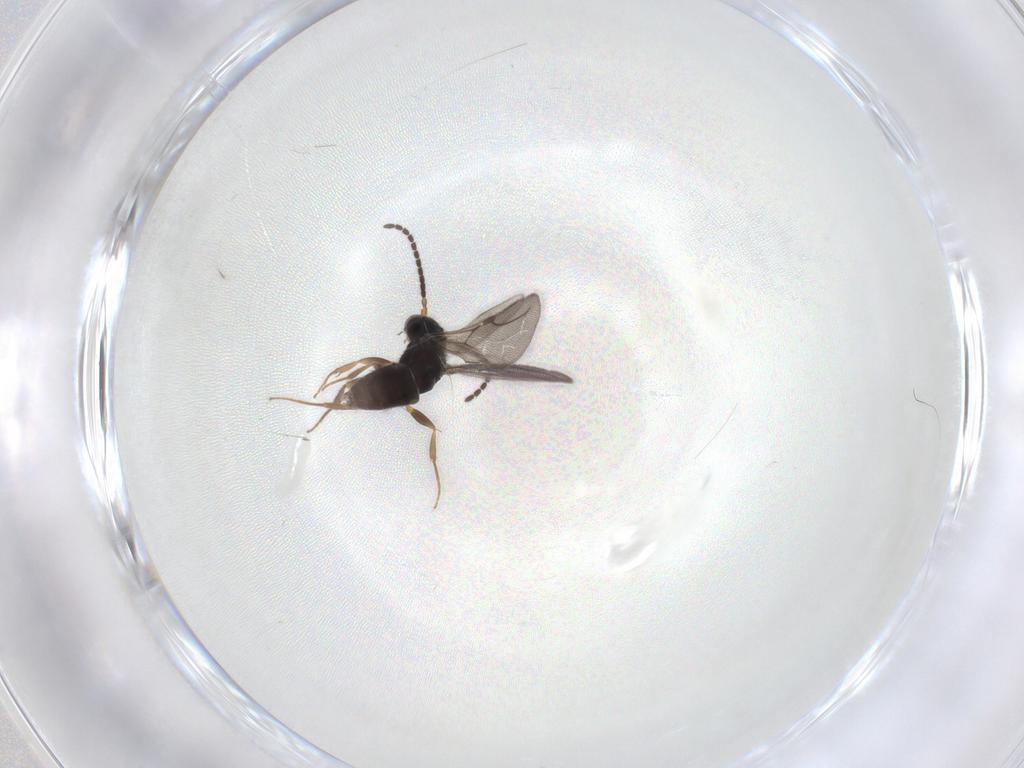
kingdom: Animalia
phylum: Arthropoda
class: Insecta
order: Hymenoptera
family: Bethylidae
